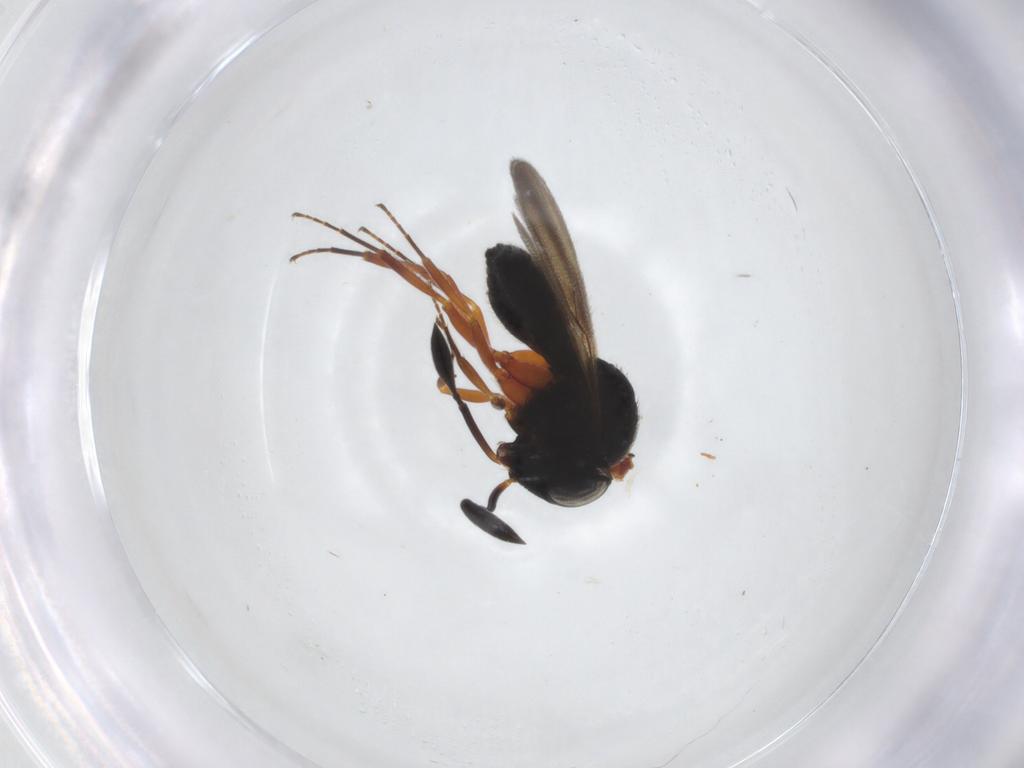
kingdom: Animalia
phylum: Arthropoda
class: Insecta
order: Hymenoptera
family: Scelionidae
